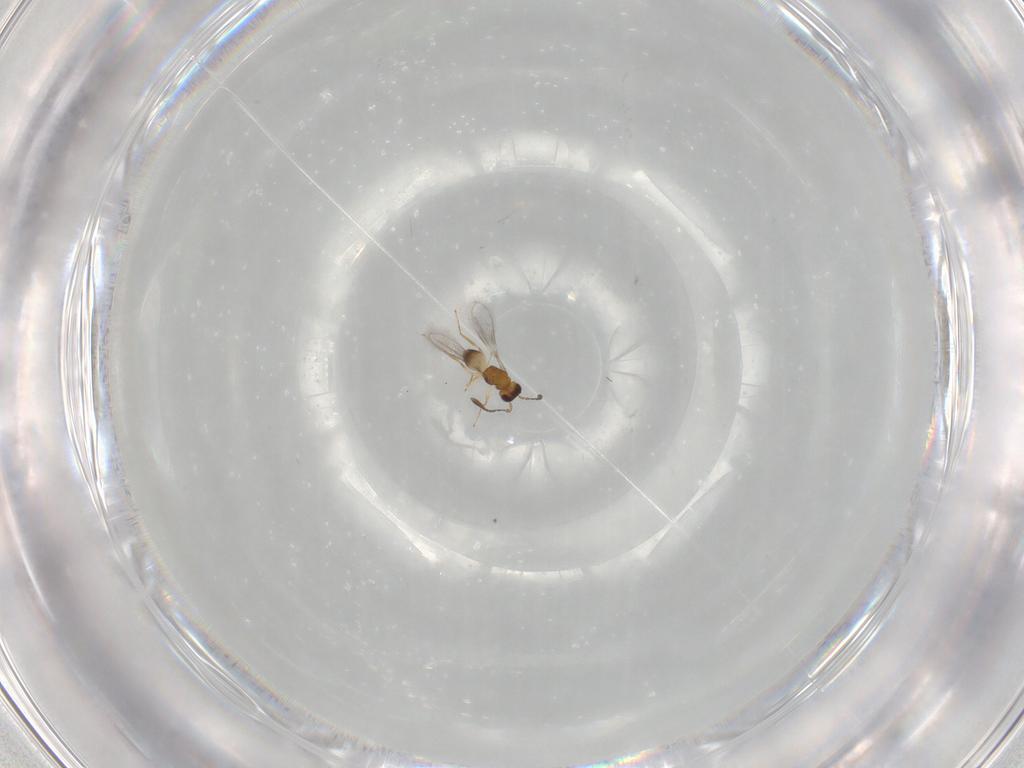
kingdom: Animalia
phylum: Arthropoda
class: Insecta
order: Hymenoptera
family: Mymaridae
